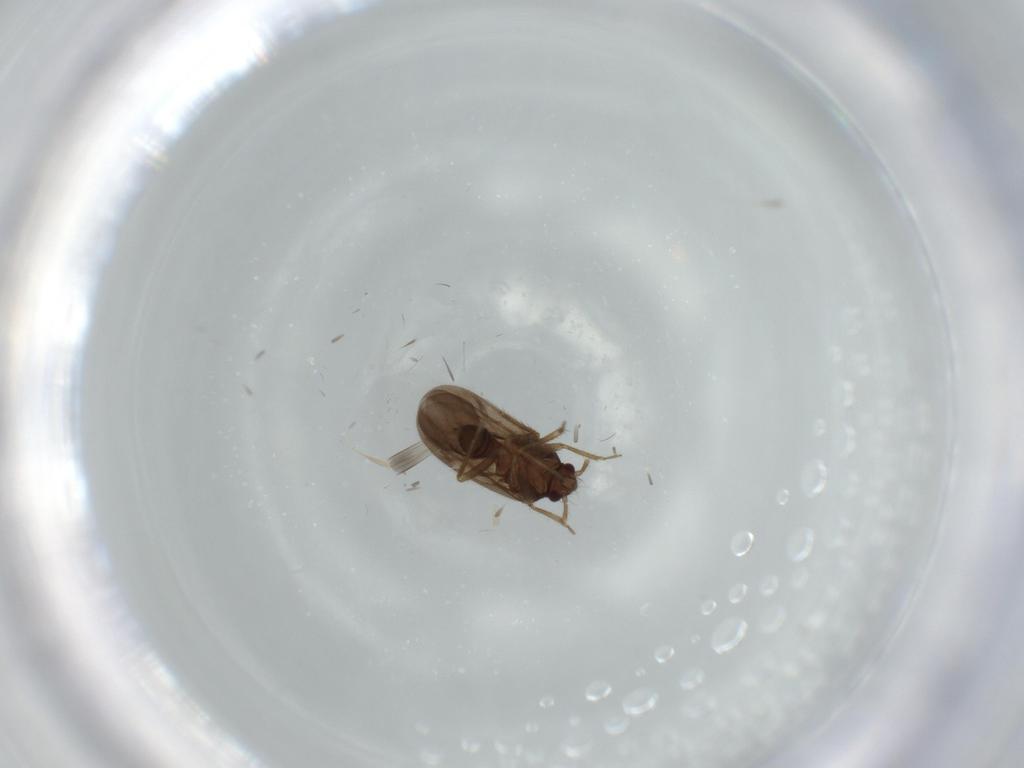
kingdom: Animalia
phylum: Arthropoda
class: Insecta
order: Hemiptera
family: Ceratocombidae
